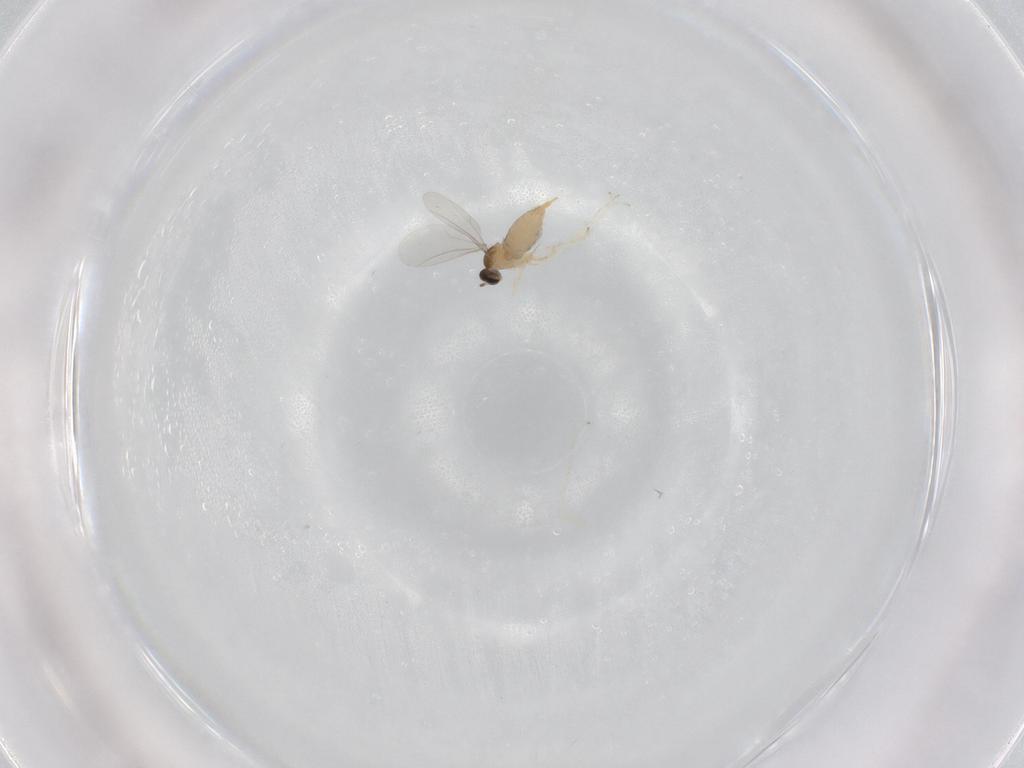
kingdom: Animalia
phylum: Arthropoda
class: Insecta
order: Diptera
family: Cecidomyiidae
